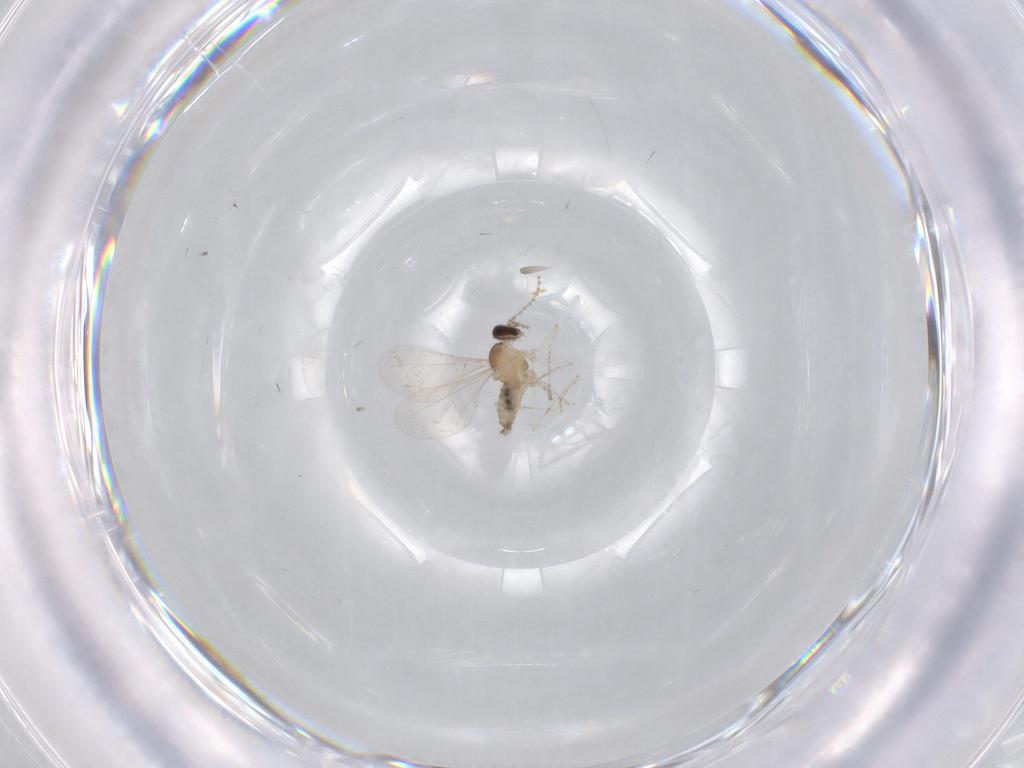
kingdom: Animalia
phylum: Arthropoda
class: Insecta
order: Diptera
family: Cecidomyiidae
